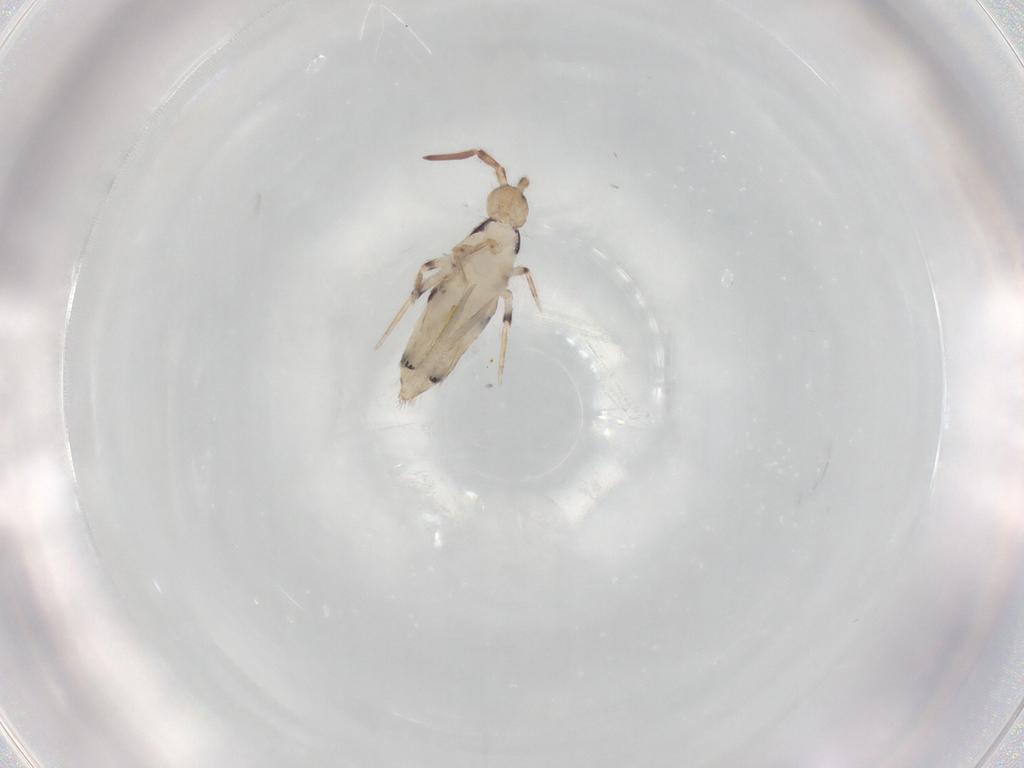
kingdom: Animalia
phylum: Arthropoda
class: Collembola
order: Entomobryomorpha
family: Entomobryidae
